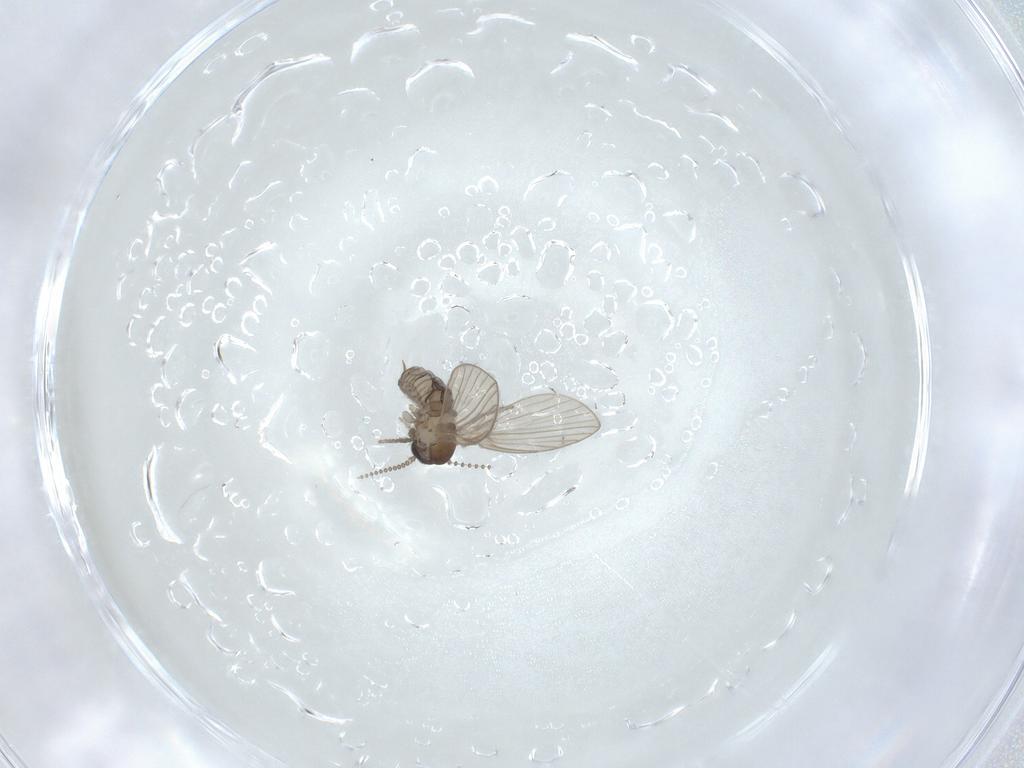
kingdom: Animalia
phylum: Arthropoda
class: Insecta
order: Diptera
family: Psychodidae
